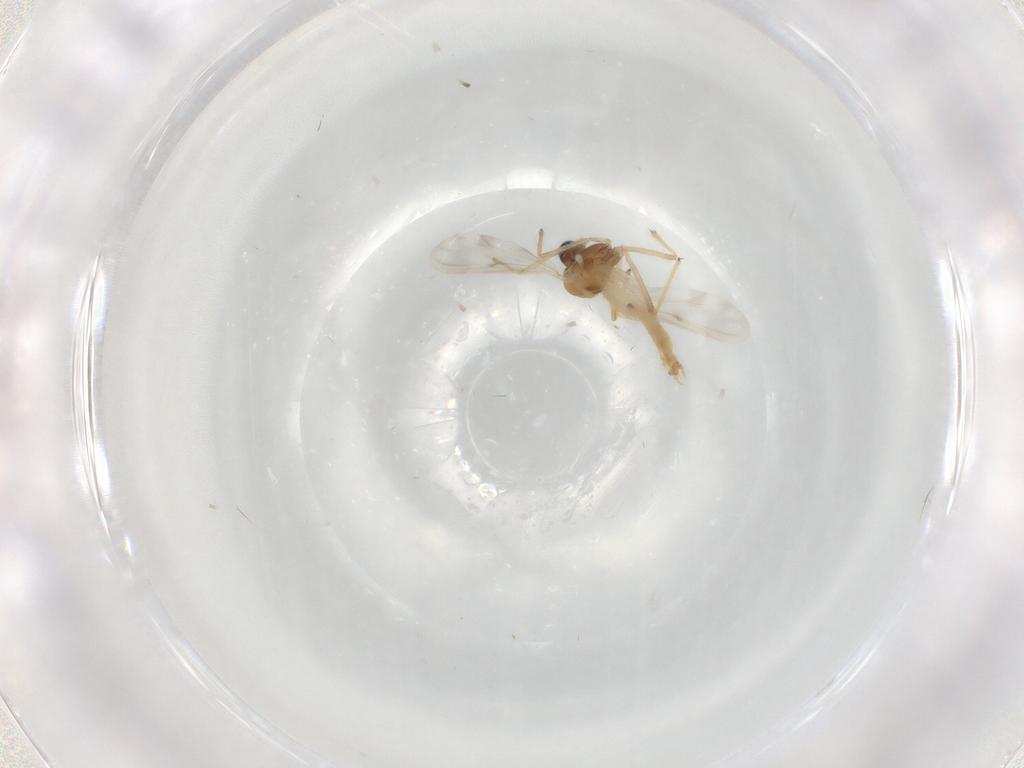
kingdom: Animalia
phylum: Arthropoda
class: Insecta
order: Diptera
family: Chironomidae
